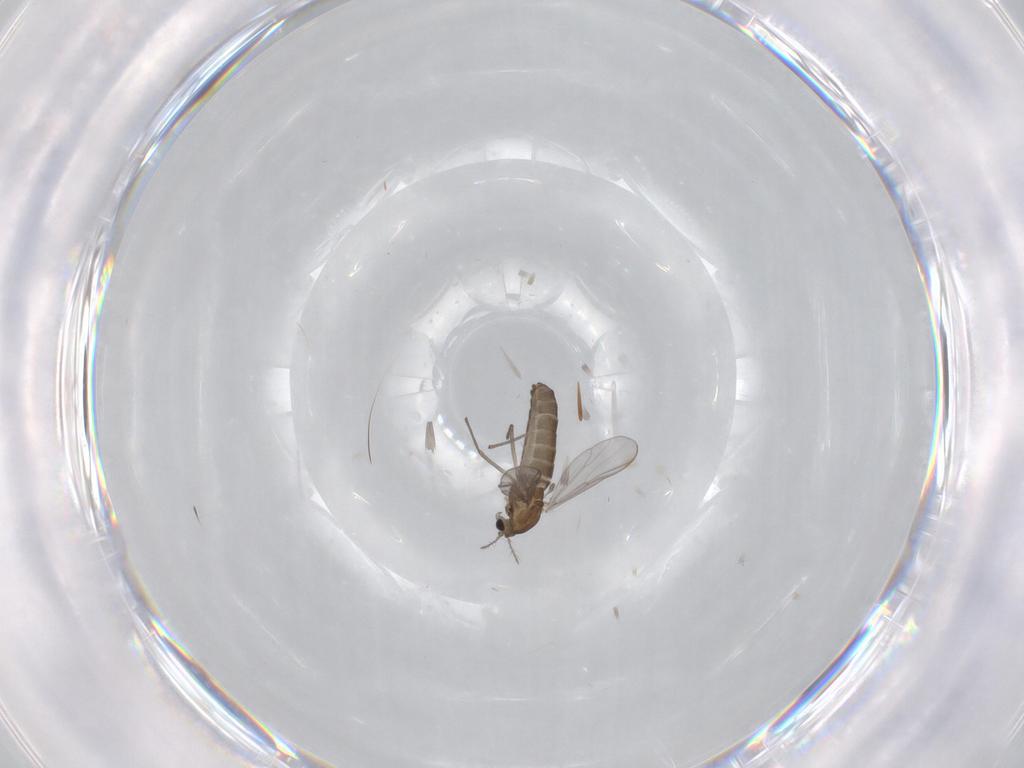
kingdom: Animalia
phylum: Arthropoda
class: Insecta
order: Diptera
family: Chironomidae
